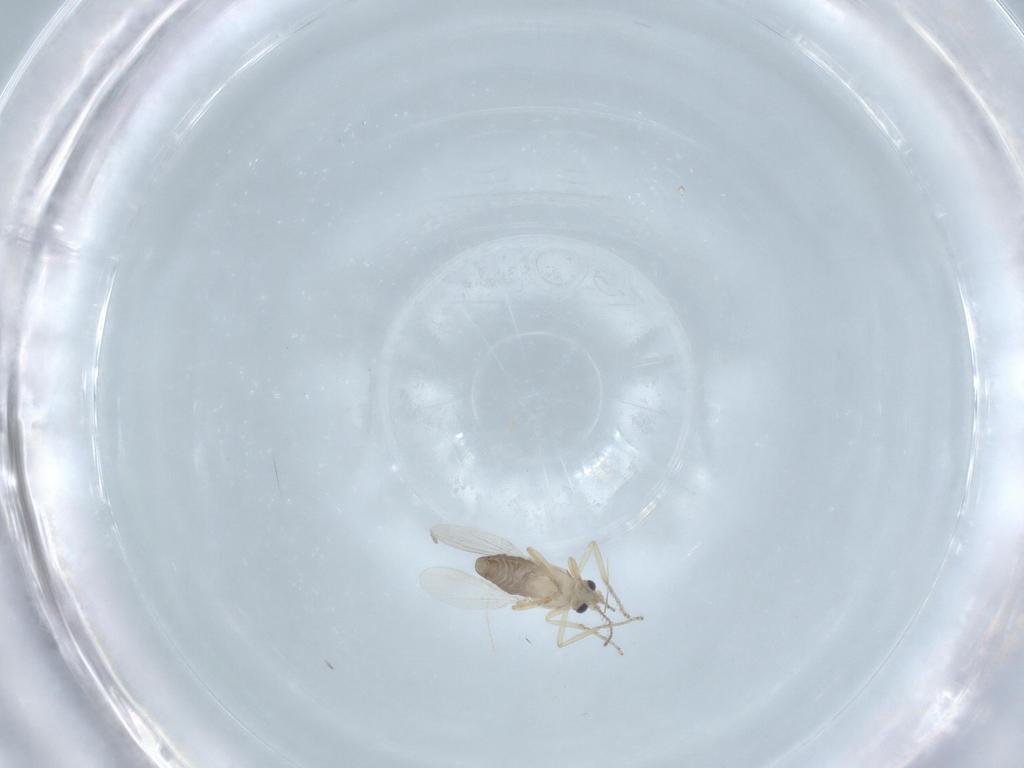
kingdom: Animalia
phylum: Arthropoda
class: Insecta
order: Diptera
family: Ceratopogonidae
